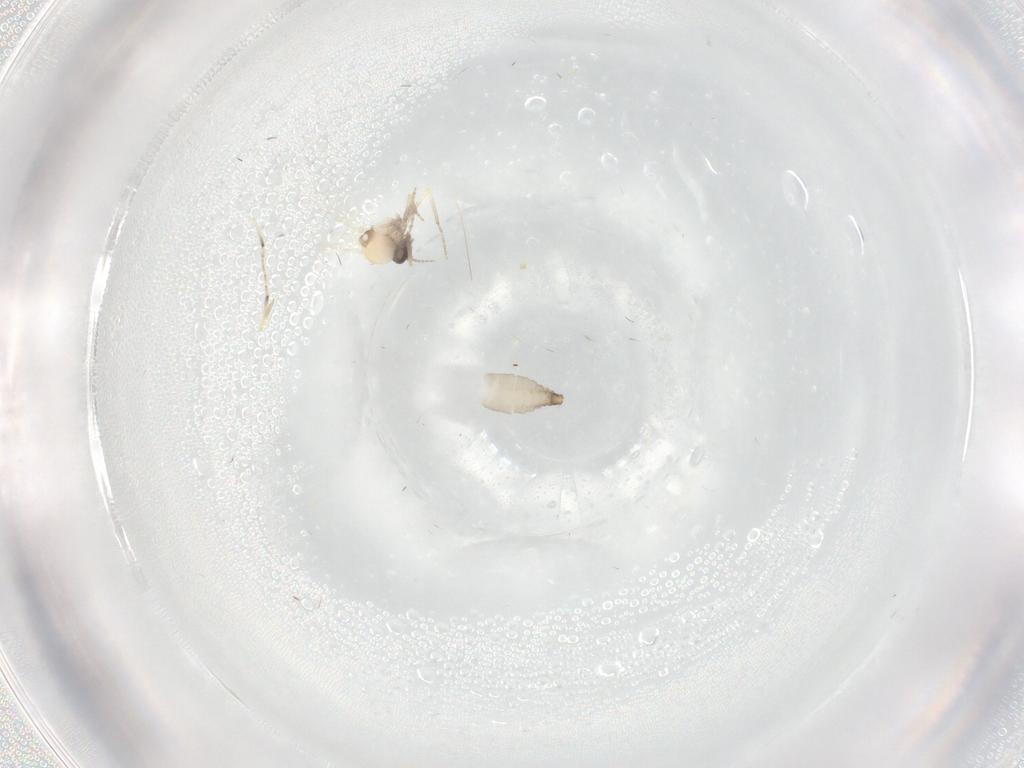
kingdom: Animalia
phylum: Arthropoda
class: Insecta
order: Diptera
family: Ceratopogonidae
